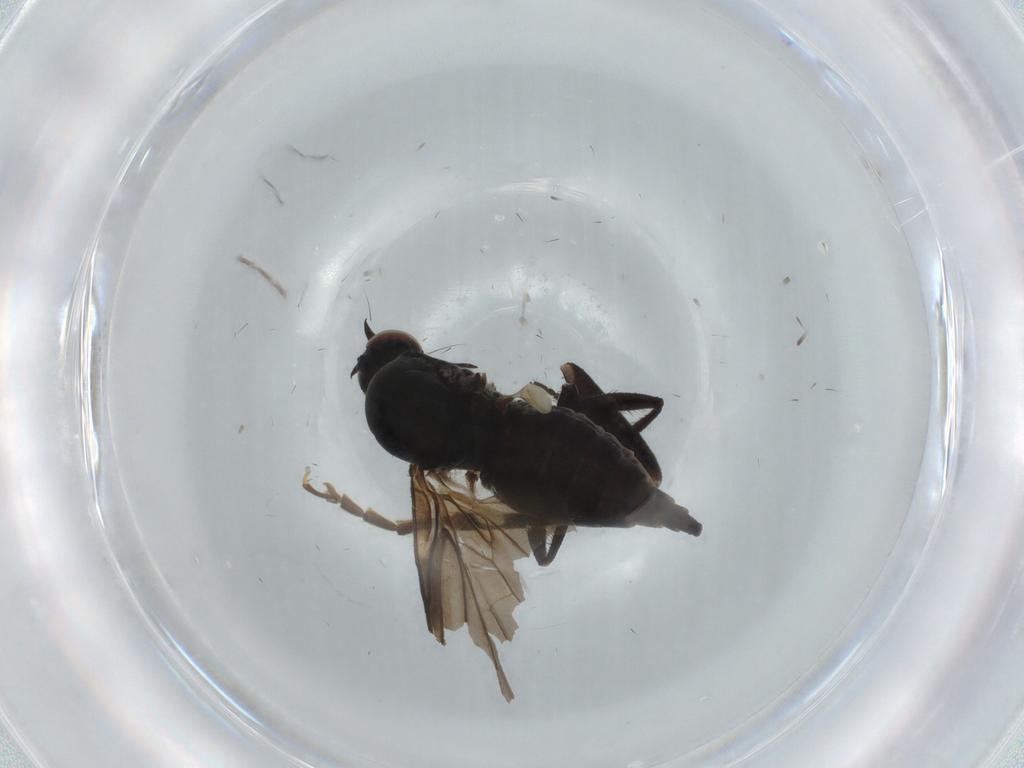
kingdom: Animalia
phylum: Arthropoda
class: Insecta
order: Diptera
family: Empididae
